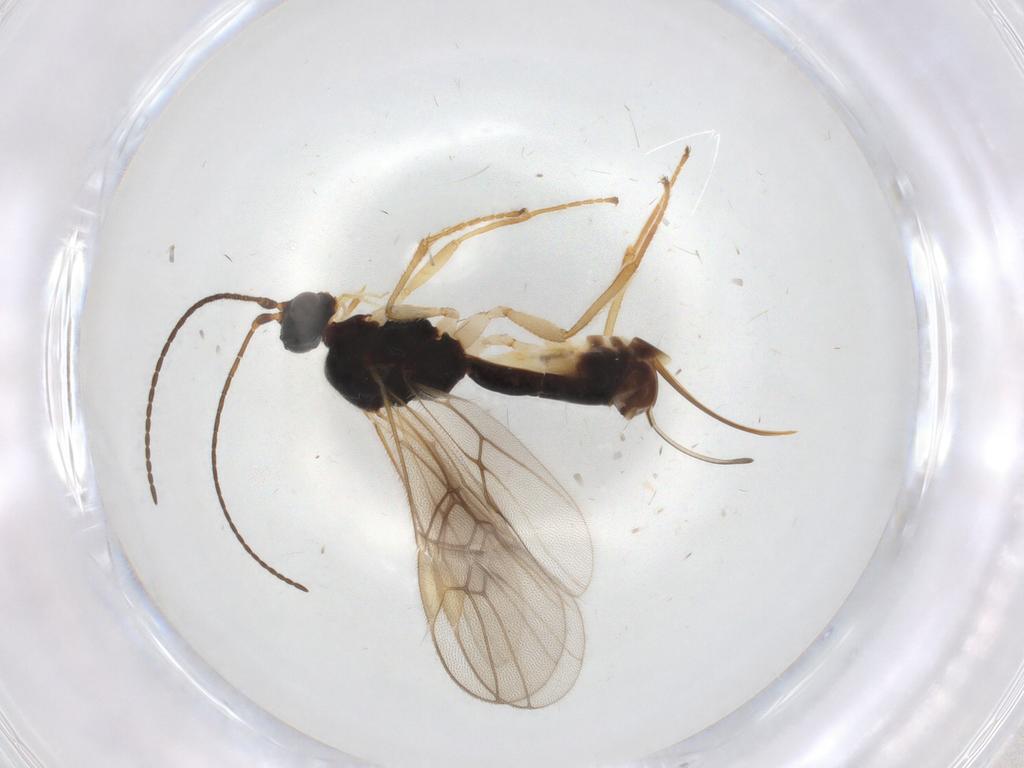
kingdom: Animalia
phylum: Arthropoda
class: Insecta
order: Hymenoptera
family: Braconidae
